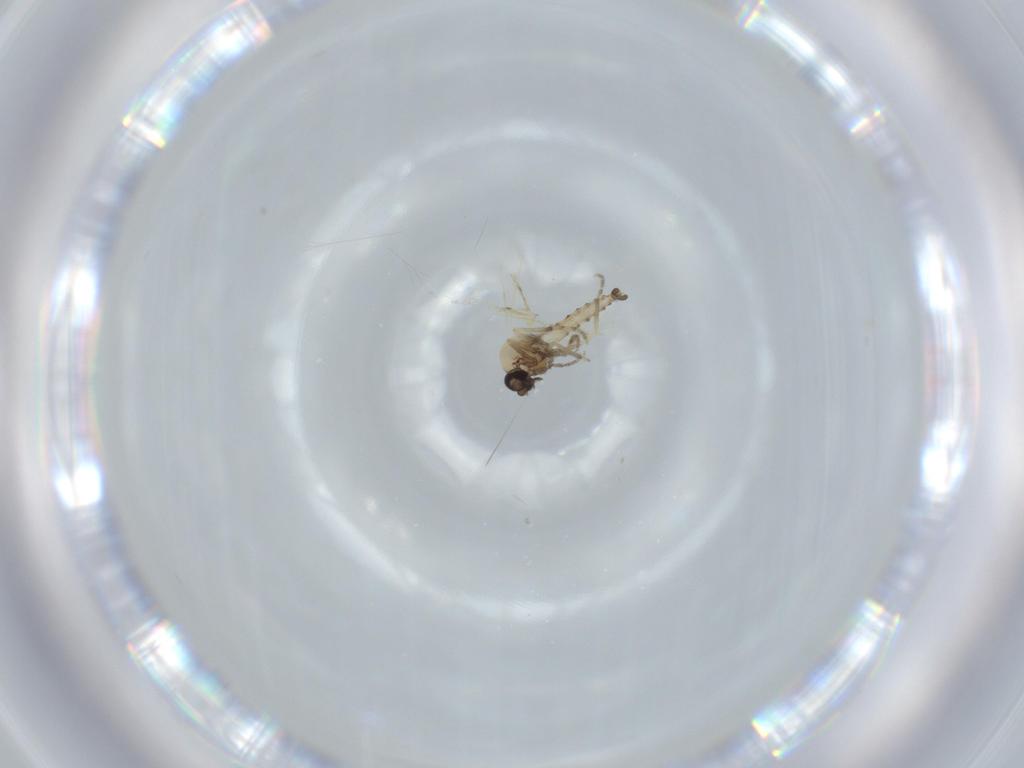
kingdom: Animalia
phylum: Arthropoda
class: Insecta
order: Diptera
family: Ceratopogonidae
